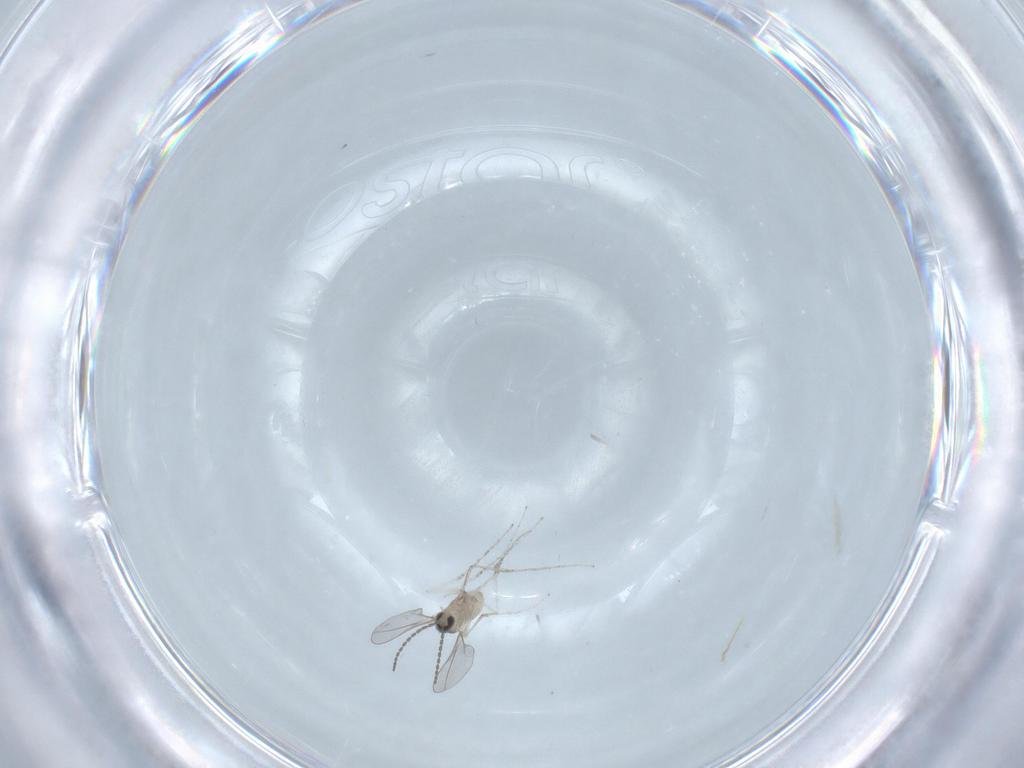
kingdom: Animalia
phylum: Arthropoda
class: Insecta
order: Diptera
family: Cecidomyiidae
